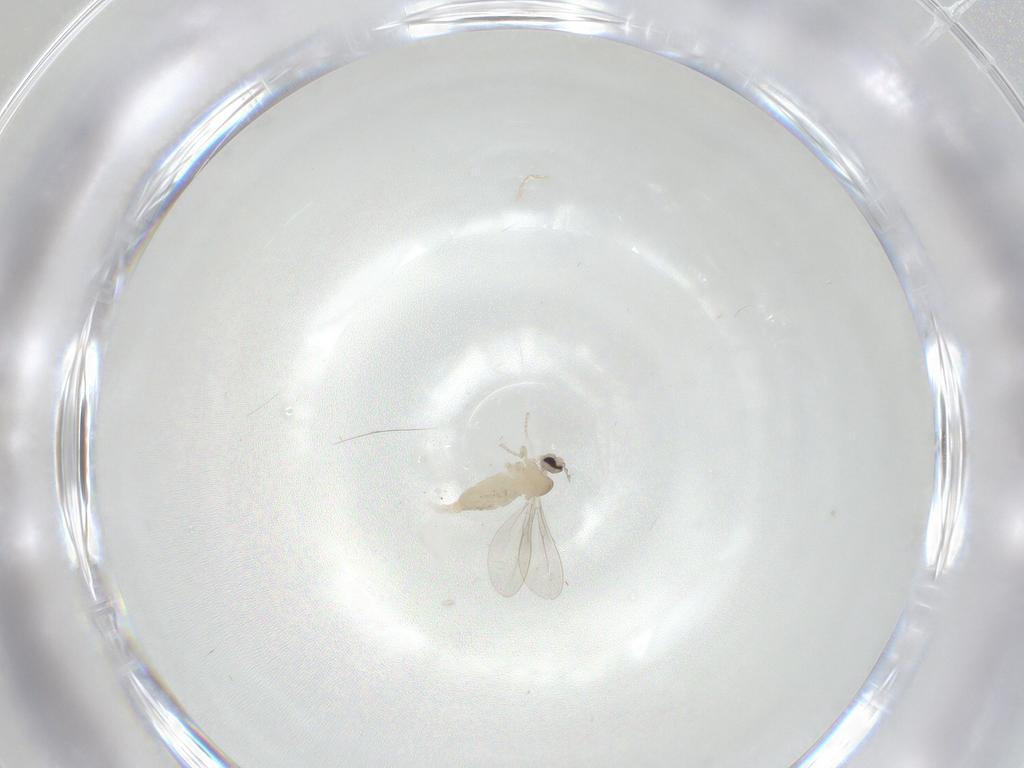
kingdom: Animalia
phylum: Arthropoda
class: Insecta
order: Diptera
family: Cecidomyiidae
